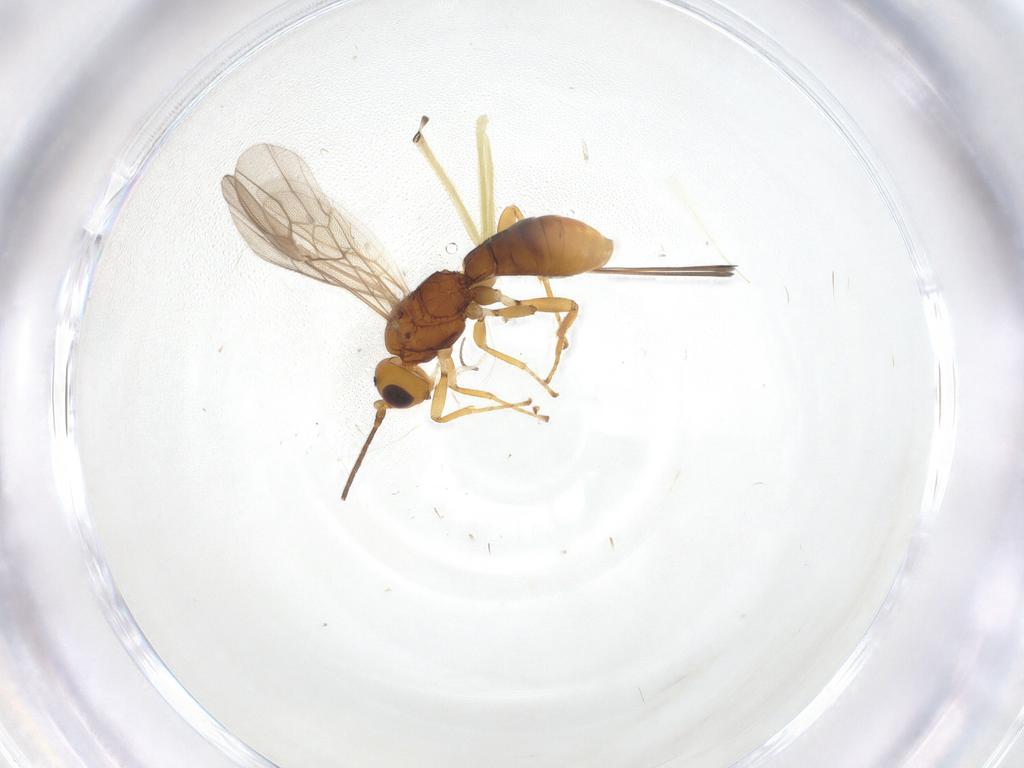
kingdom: Animalia
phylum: Arthropoda
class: Insecta
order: Hymenoptera
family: Braconidae
